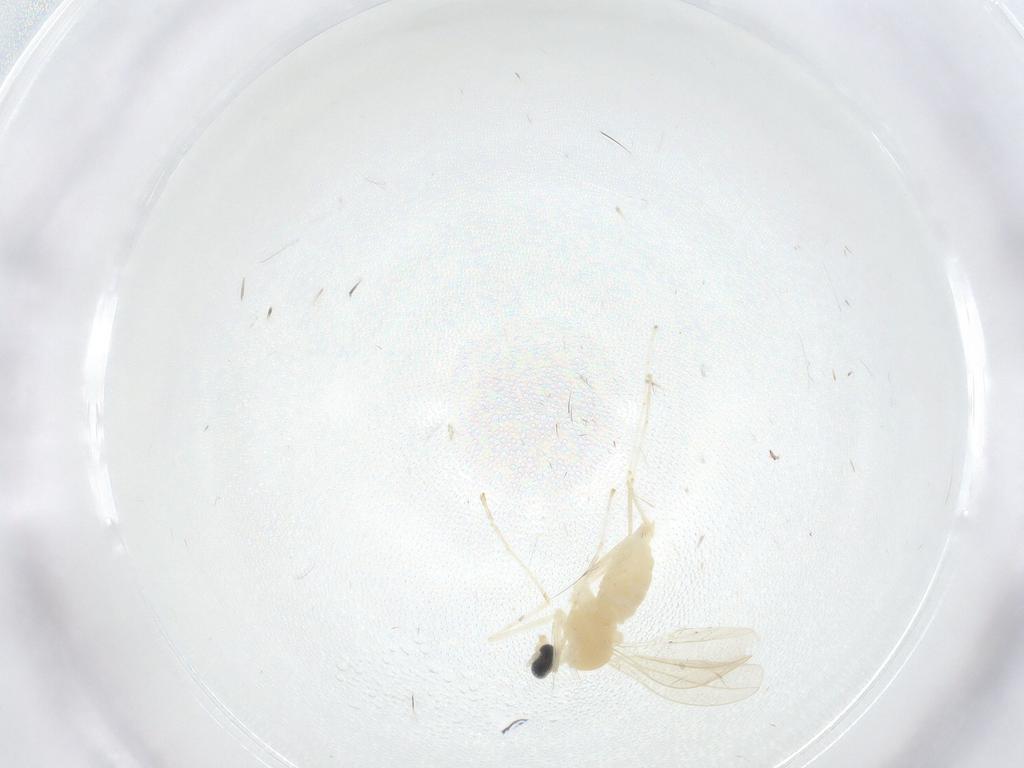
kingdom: Animalia
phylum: Arthropoda
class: Insecta
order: Diptera
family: Cecidomyiidae
